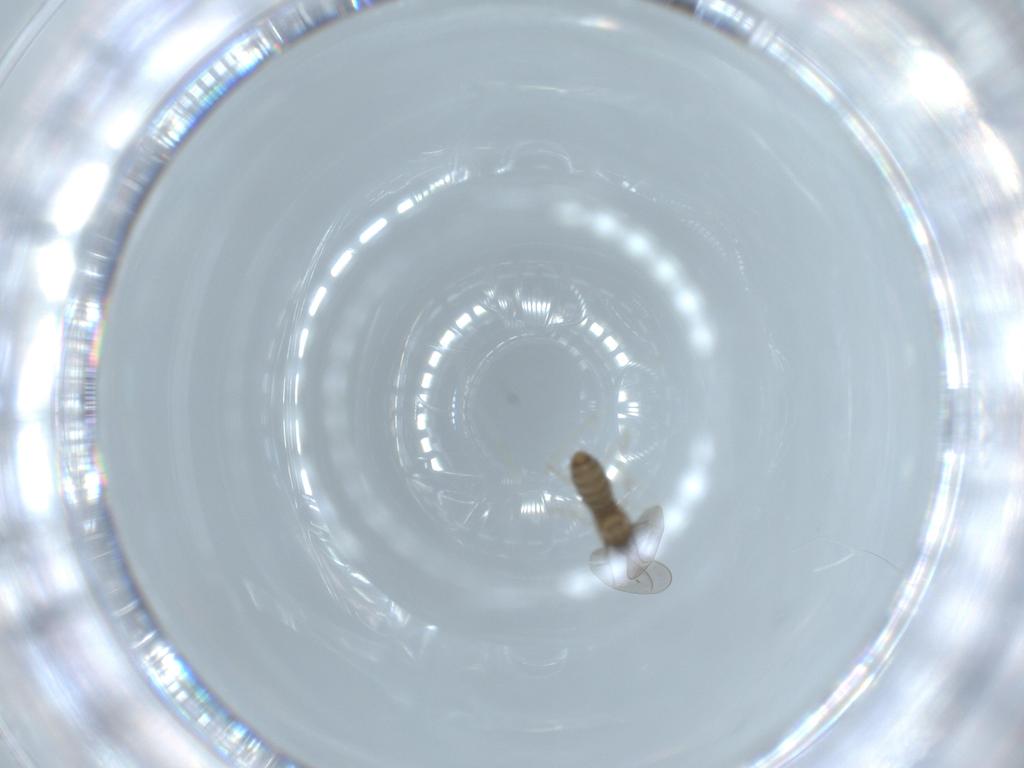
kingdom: Animalia
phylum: Arthropoda
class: Insecta
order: Diptera
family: Cecidomyiidae
